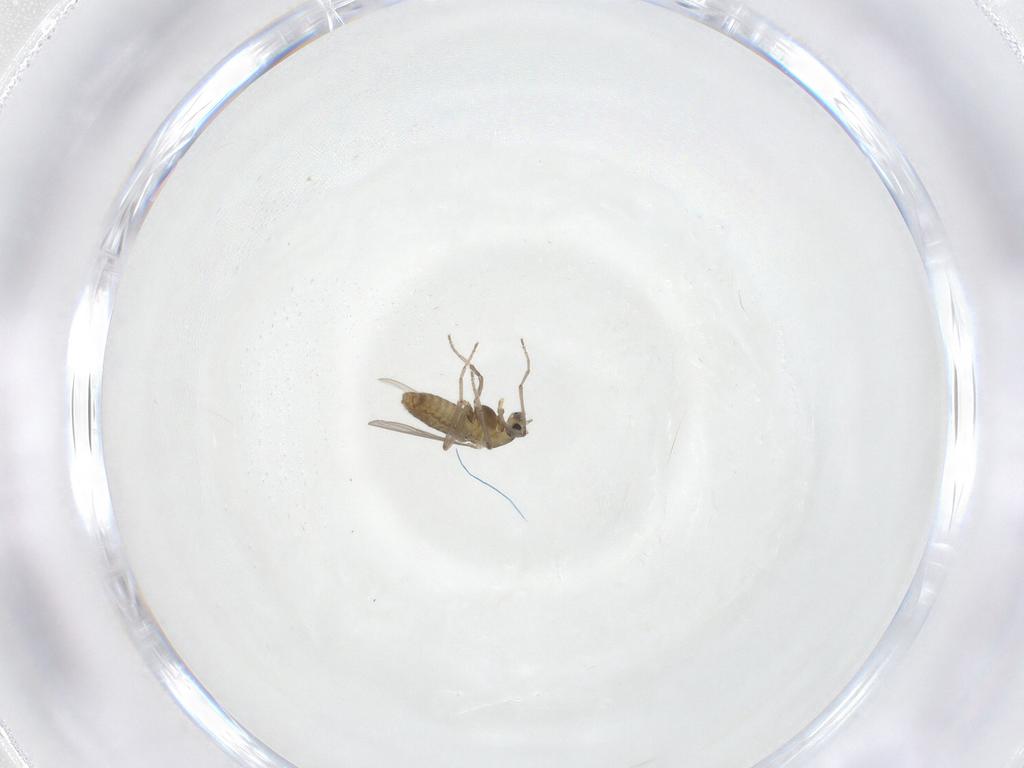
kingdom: Animalia
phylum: Arthropoda
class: Insecta
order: Diptera
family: Chironomidae
